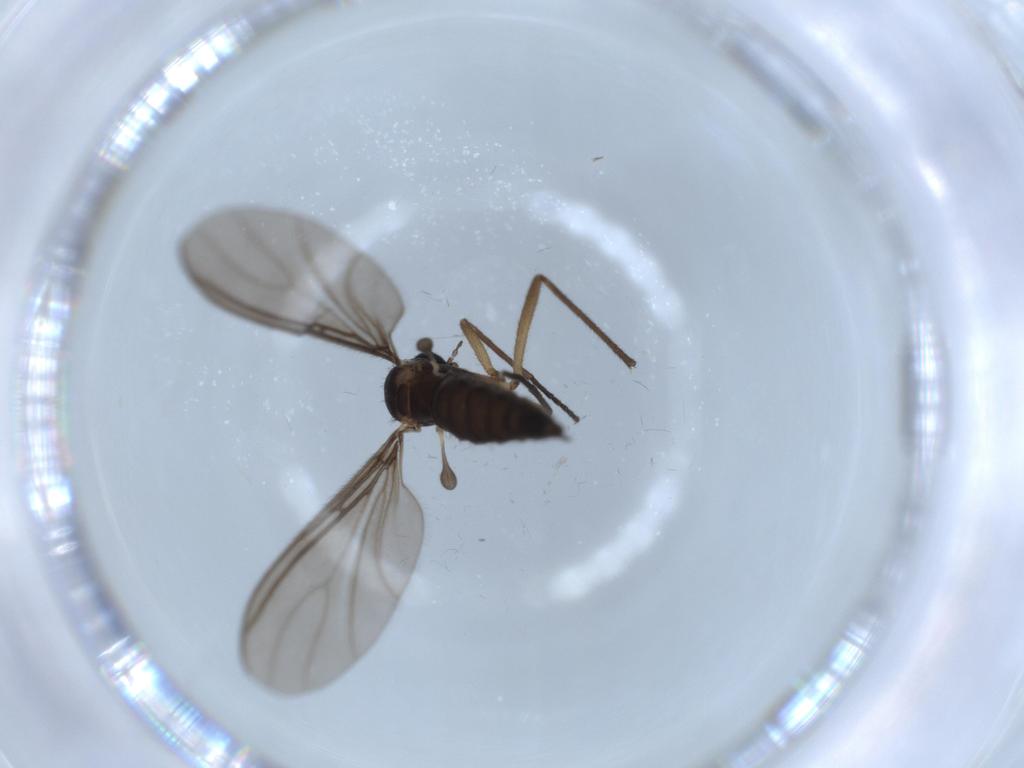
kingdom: Animalia
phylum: Arthropoda
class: Insecta
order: Diptera
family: Sciaridae
